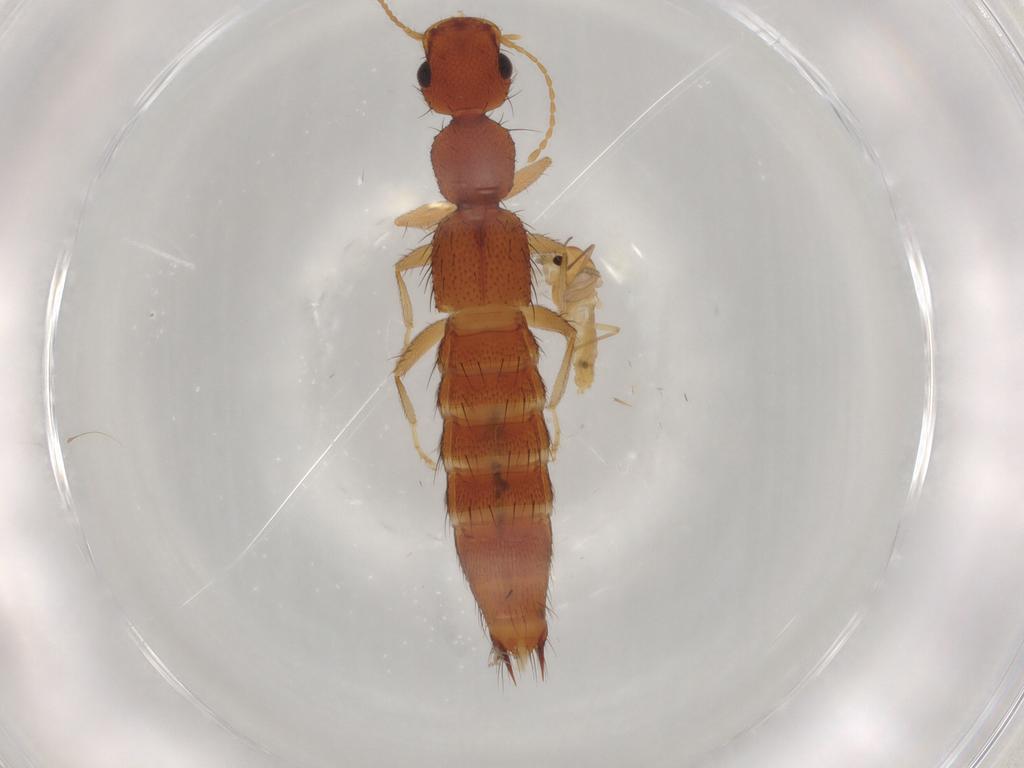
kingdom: Animalia
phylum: Arthropoda
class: Insecta
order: Coleoptera
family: Staphylinidae
